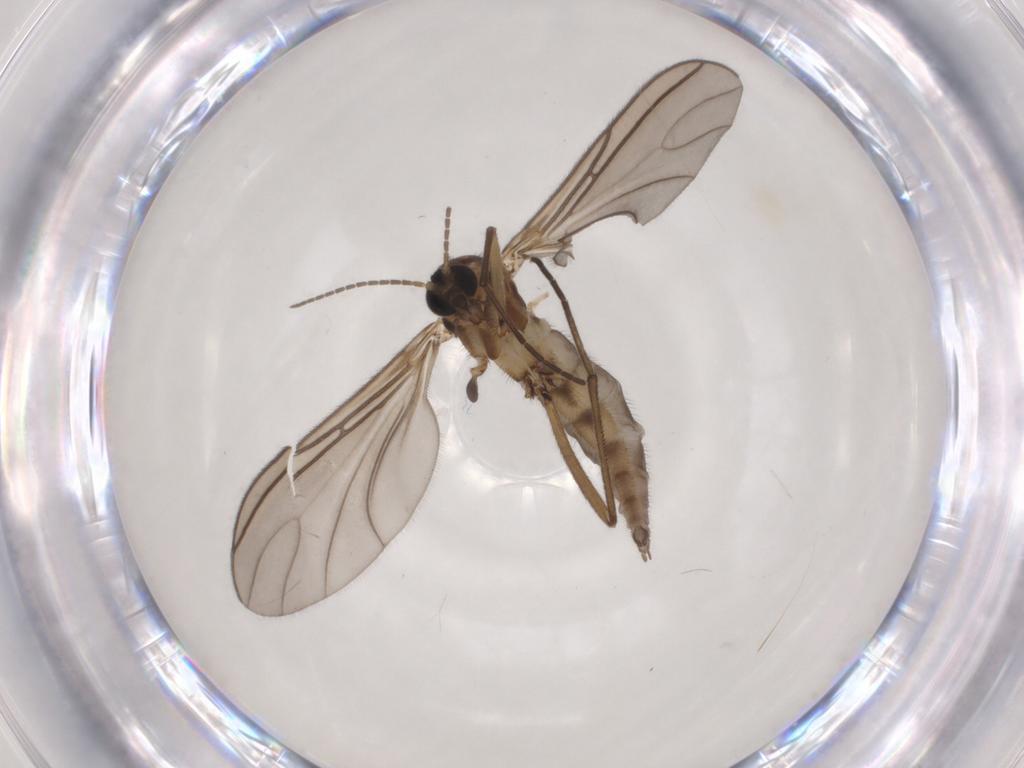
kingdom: Animalia
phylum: Arthropoda
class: Insecta
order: Diptera
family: Sciaridae
